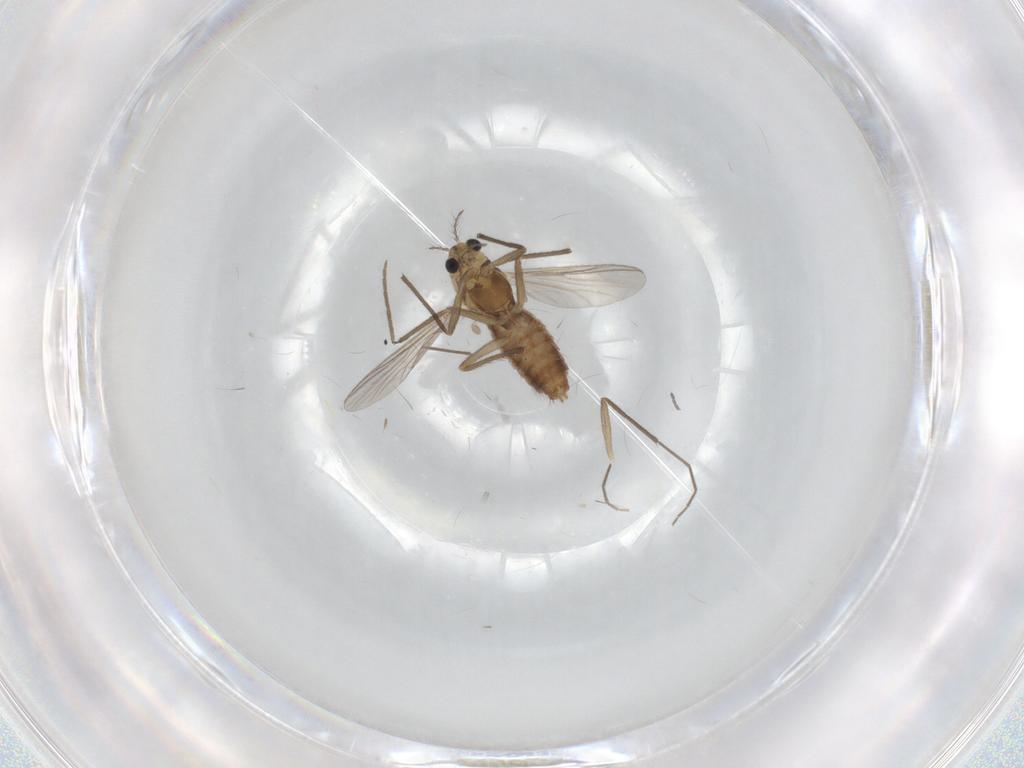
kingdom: Animalia
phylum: Arthropoda
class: Insecta
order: Diptera
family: Chironomidae
